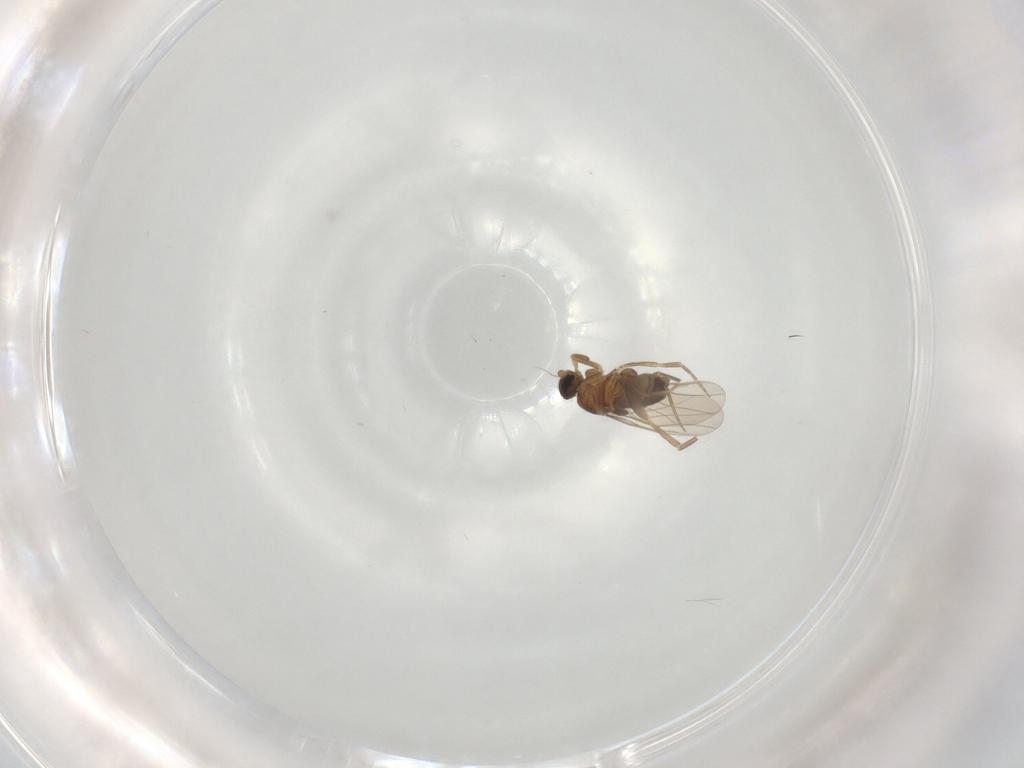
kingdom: Animalia
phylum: Arthropoda
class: Insecta
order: Diptera
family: Phoridae
